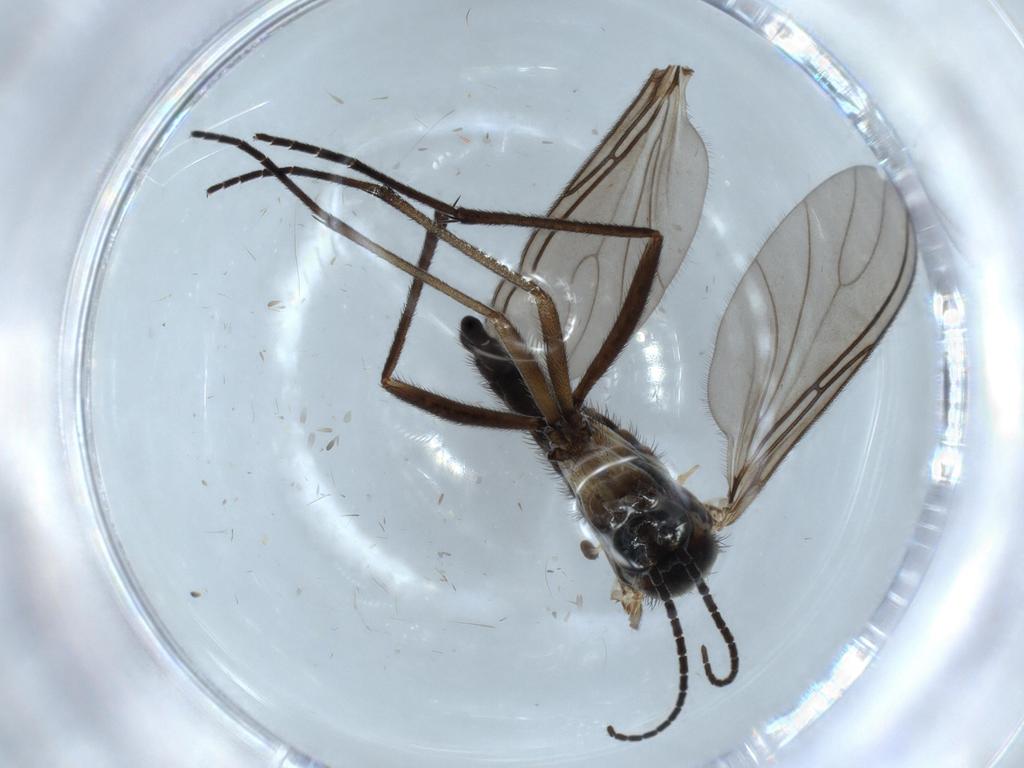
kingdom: Animalia
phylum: Arthropoda
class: Insecta
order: Diptera
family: Sciaridae
